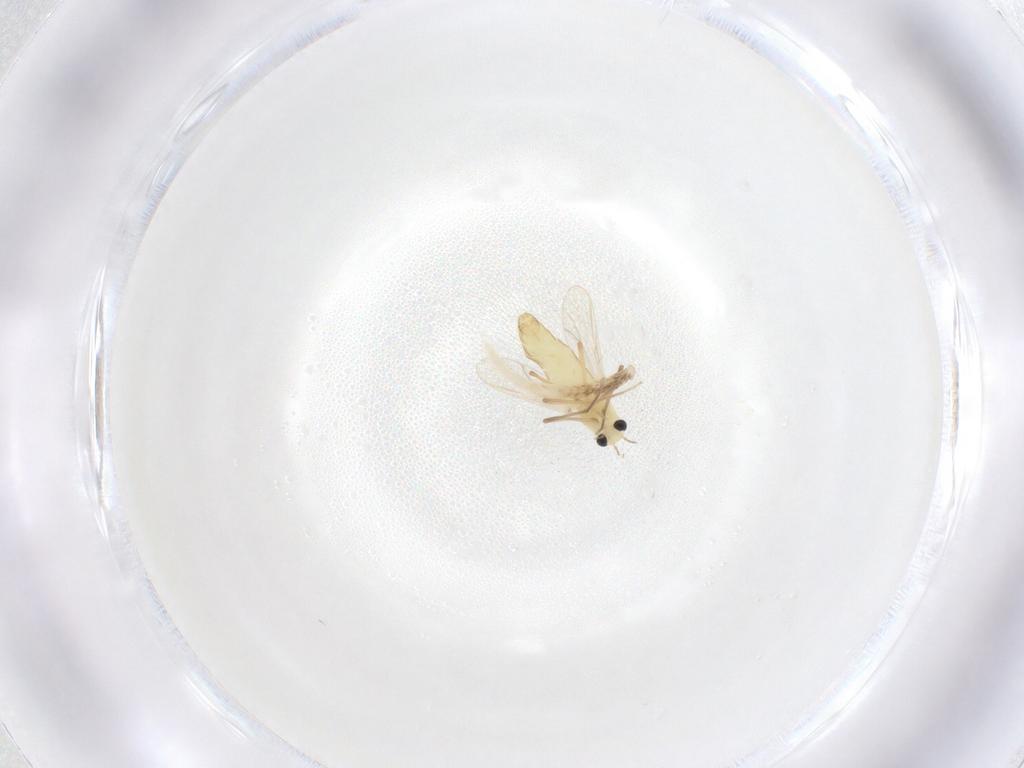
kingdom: Animalia
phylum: Arthropoda
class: Insecta
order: Diptera
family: Chironomidae
